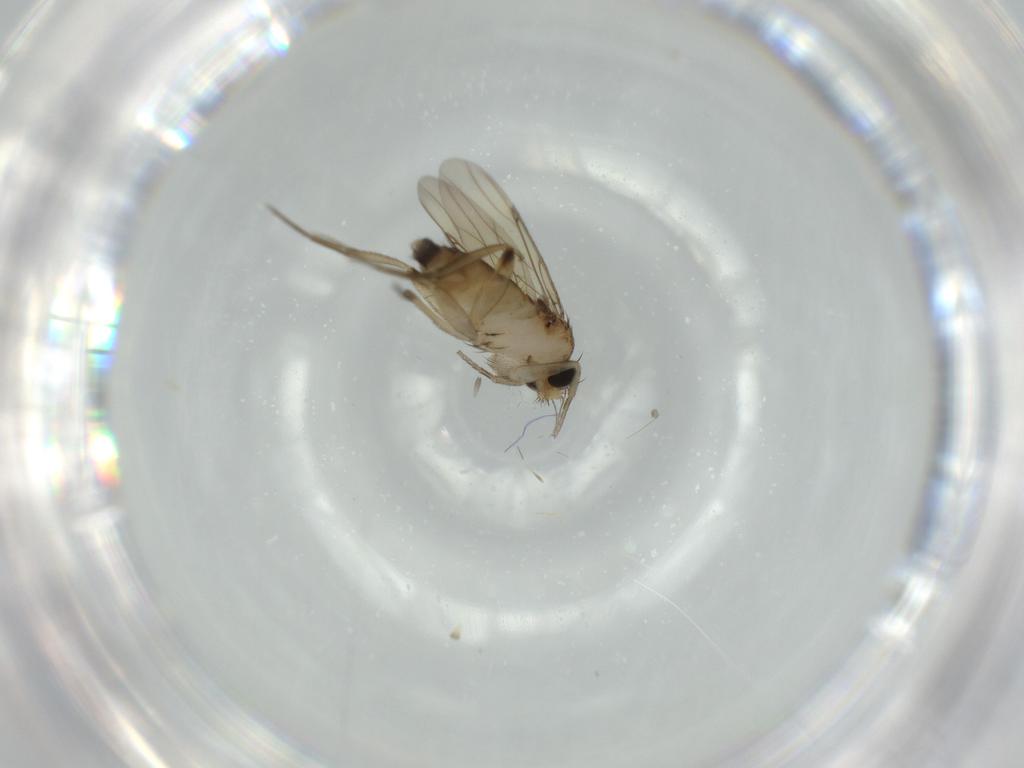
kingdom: Animalia
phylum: Arthropoda
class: Insecta
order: Diptera
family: Phoridae
